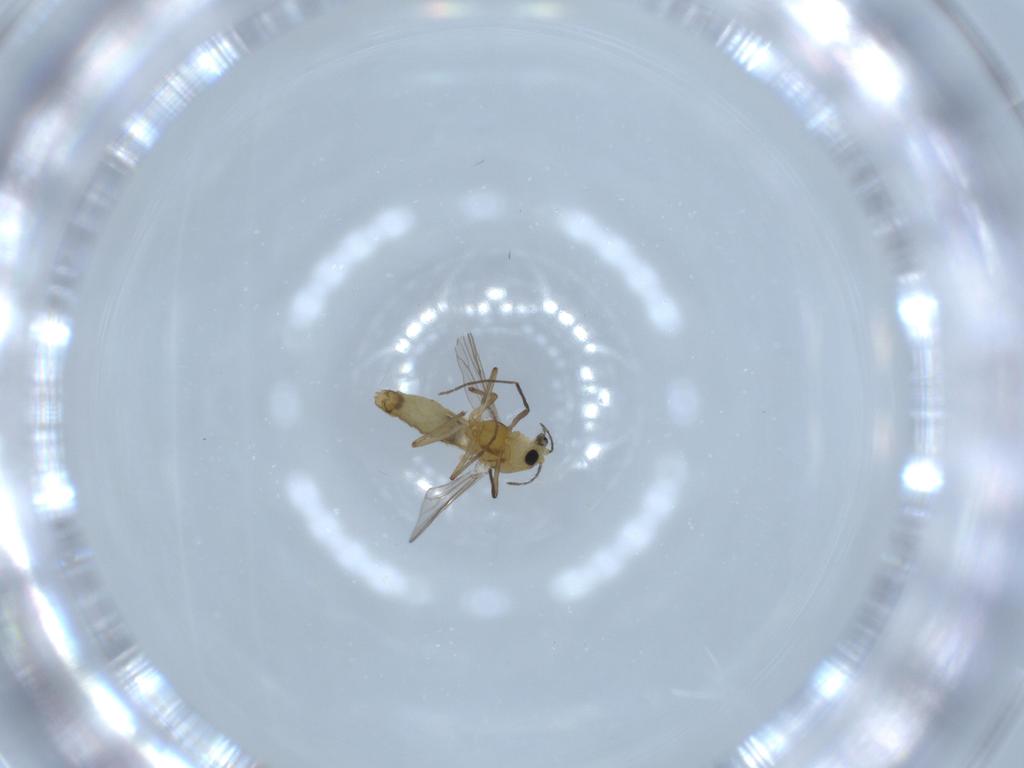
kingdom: Animalia
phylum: Arthropoda
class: Insecta
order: Diptera
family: Chironomidae
